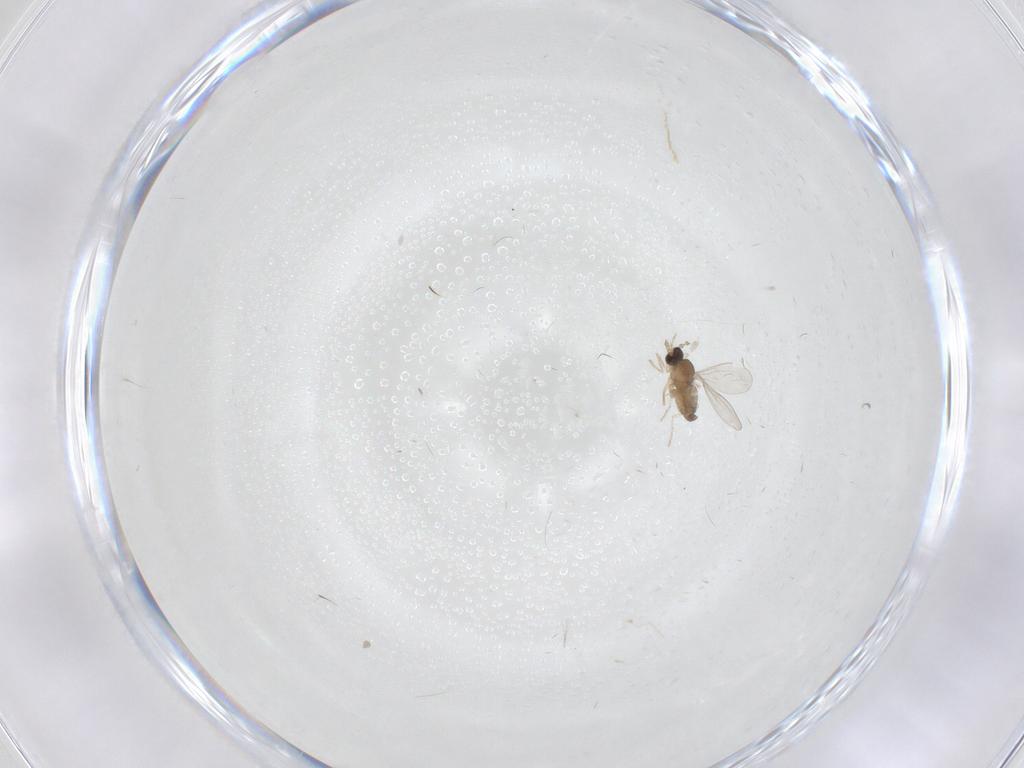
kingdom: Animalia
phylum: Arthropoda
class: Insecta
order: Diptera
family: Cecidomyiidae
